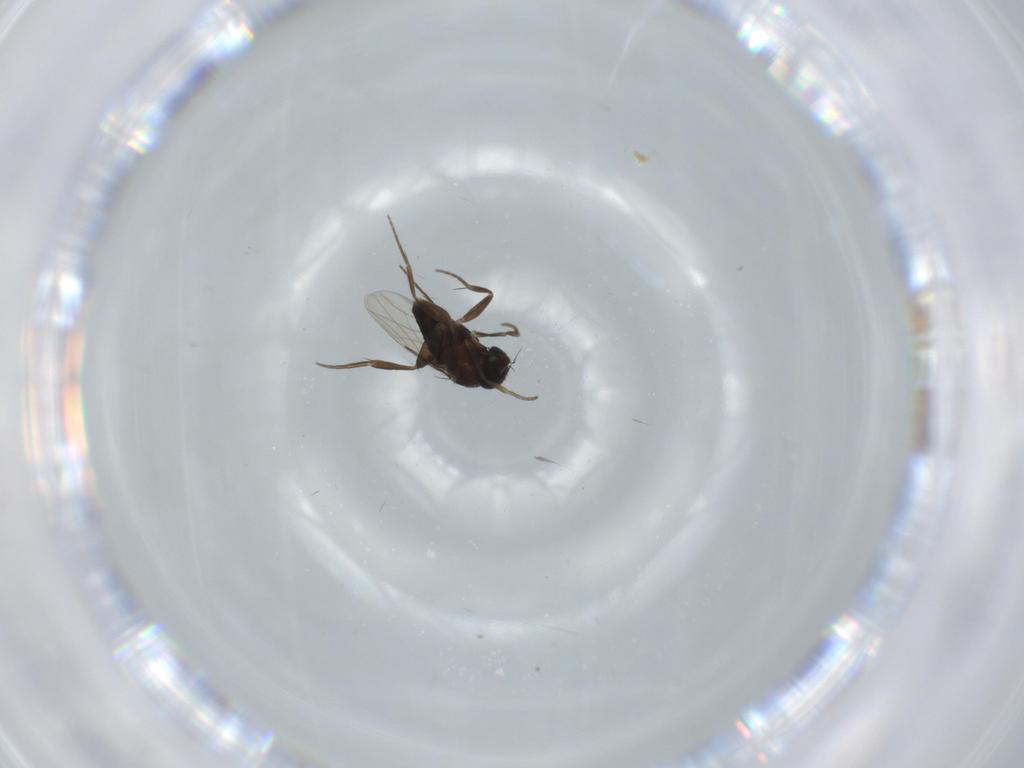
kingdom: Animalia
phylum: Arthropoda
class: Insecta
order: Diptera
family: Phoridae
